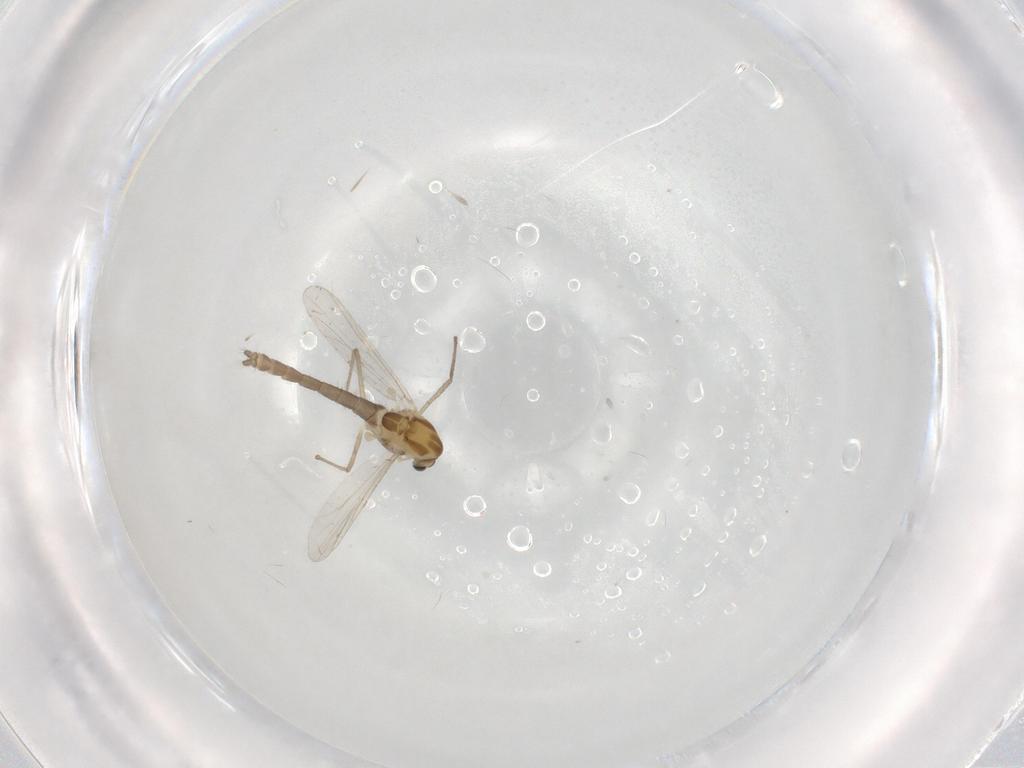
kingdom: Animalia
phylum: Arthropoda
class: Insecta
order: Diptera
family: Chironomidae
